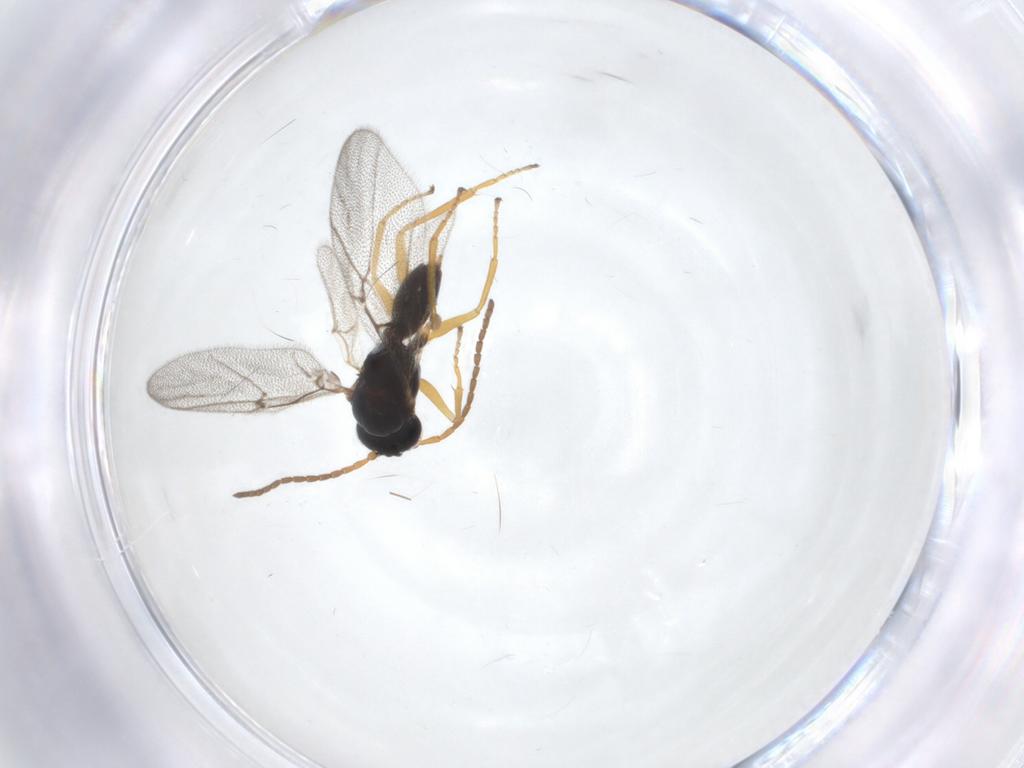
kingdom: Animalia
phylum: Arthropoda
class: Insecta
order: Hymenoptera
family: Cynipidae
